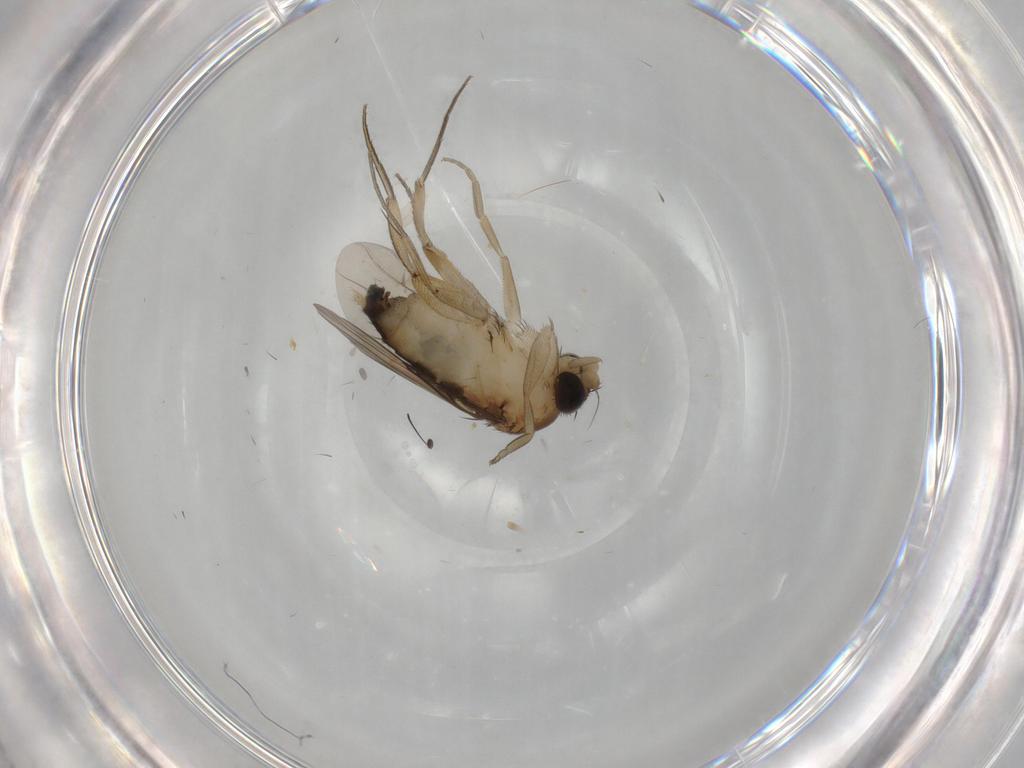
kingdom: Animalia
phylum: Arthropoda
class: Insecta
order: Diptera
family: Phoridae
